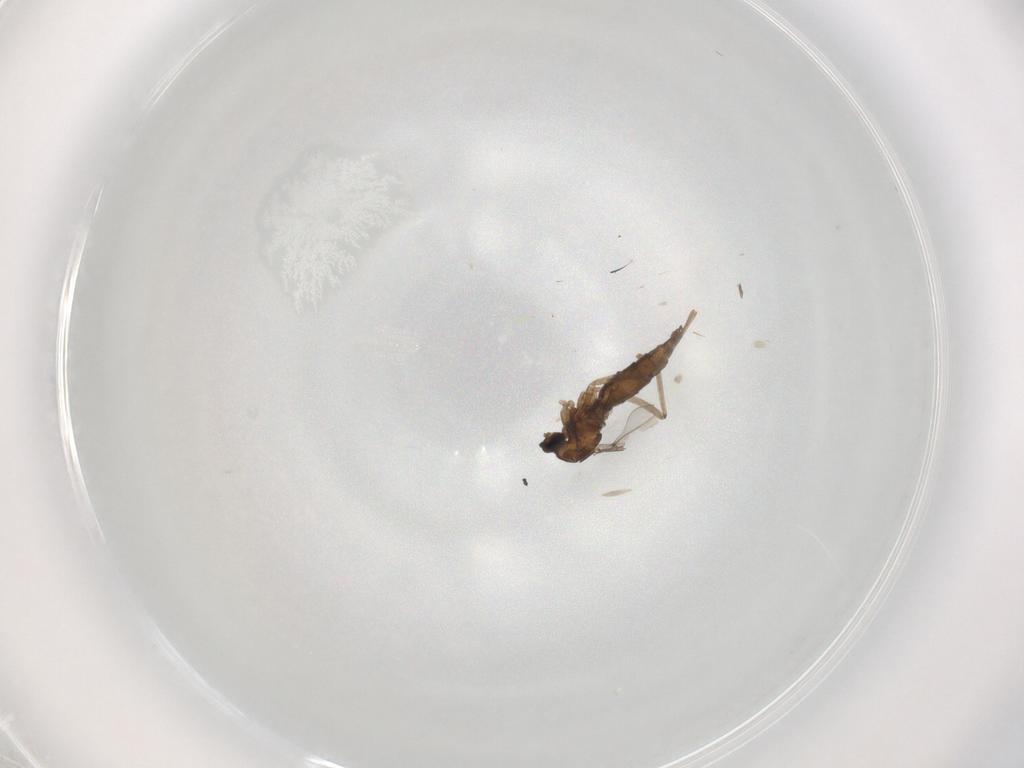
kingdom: Animalia
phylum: Arthropoda
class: Insecta
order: Diptera
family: Cecidomyiidae
